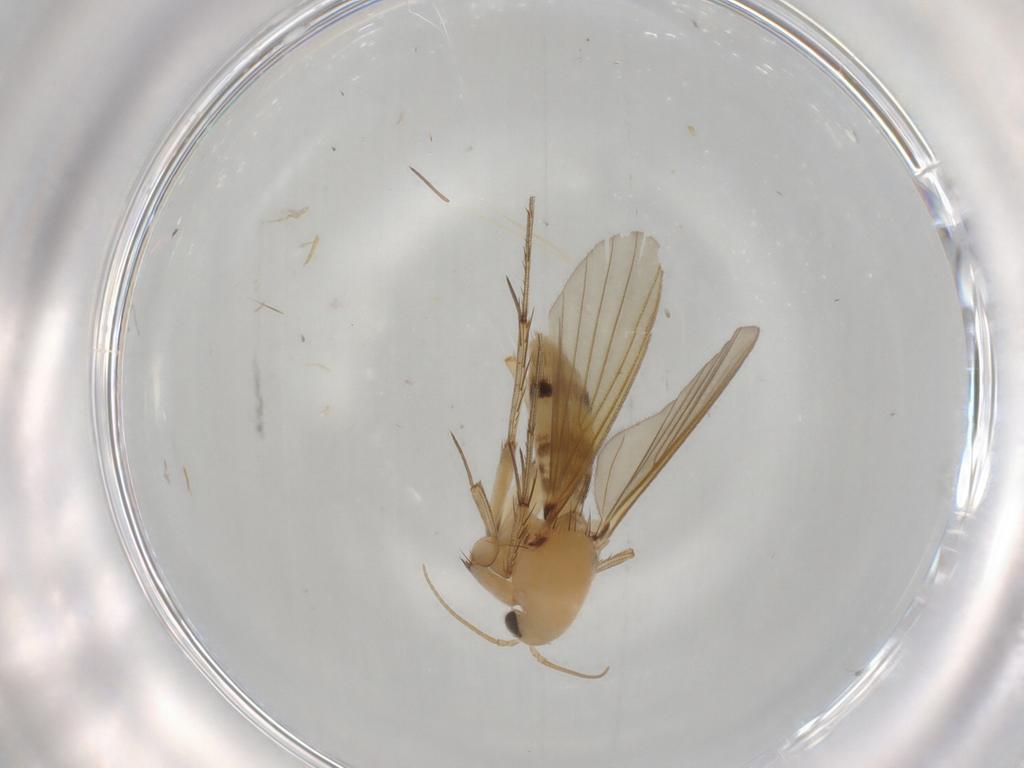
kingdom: Animalia
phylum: Arthropoda
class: Insecta
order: Diptera
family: Mycetophilidae
